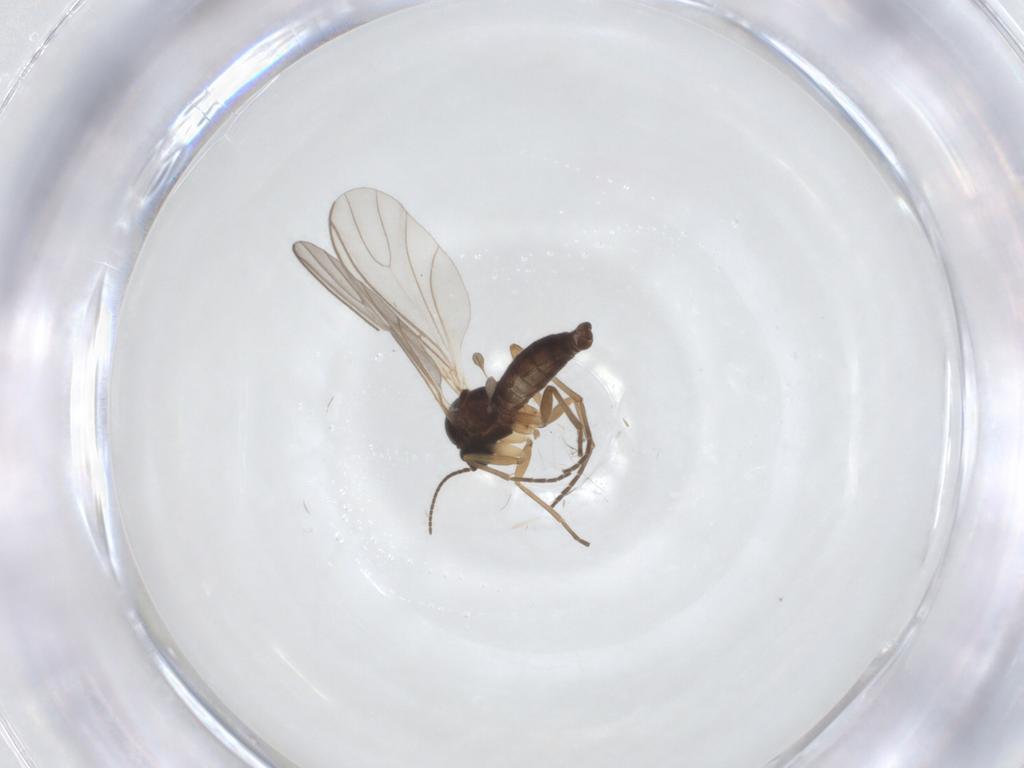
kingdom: Animalia
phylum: Arthropoda
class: Insecta
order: Diptera
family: Sciaridae
